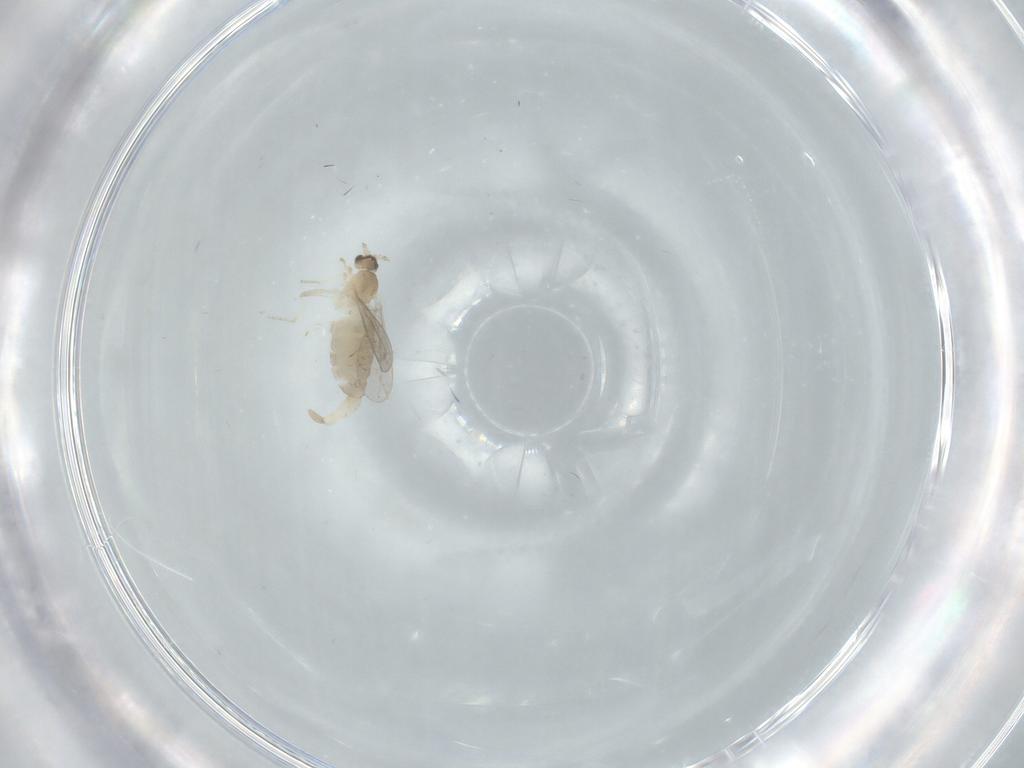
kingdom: Animalia
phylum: Arthropoda
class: Insecta
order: Diptera
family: Cecidomyiidae
